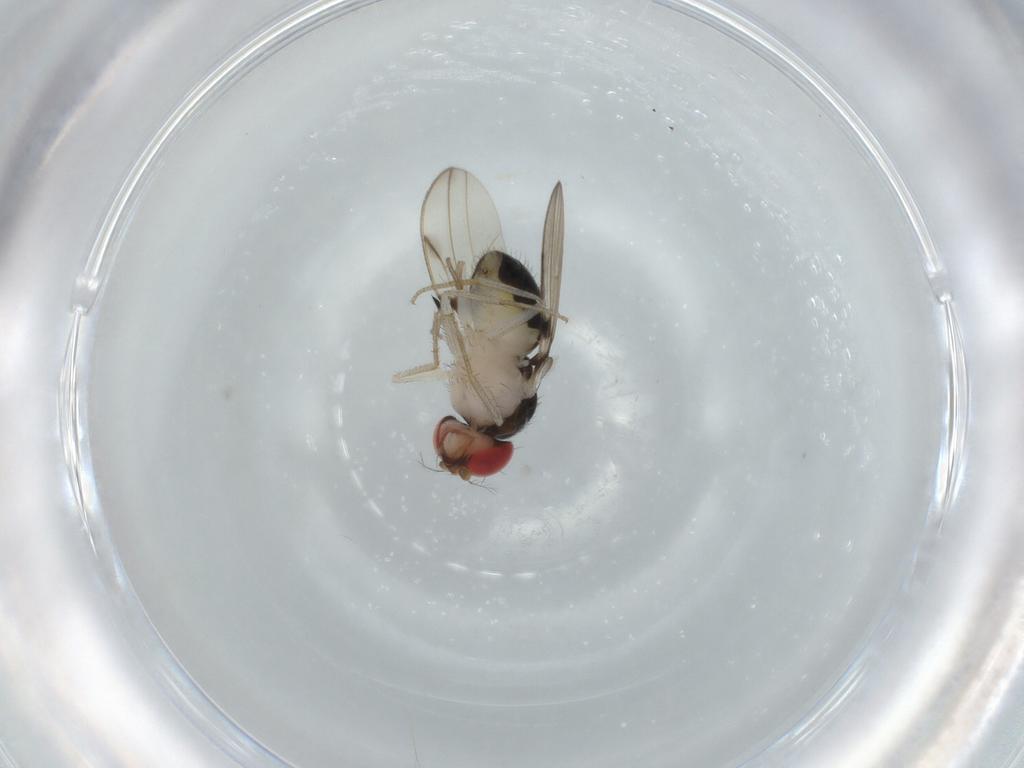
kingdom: Animalia
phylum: Arthropoda
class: Insecta
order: Diptera
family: Drosophilidae
